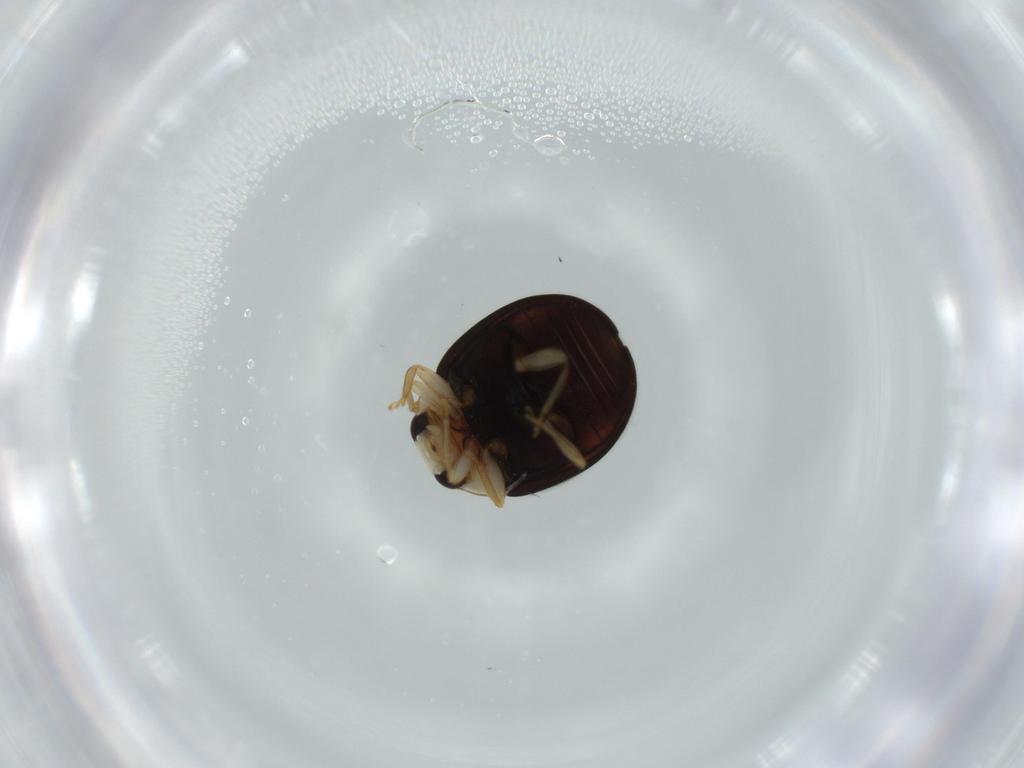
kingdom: Animalia
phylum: Arthropoda
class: Insecta
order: Coleoptera
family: Coccinellidae
